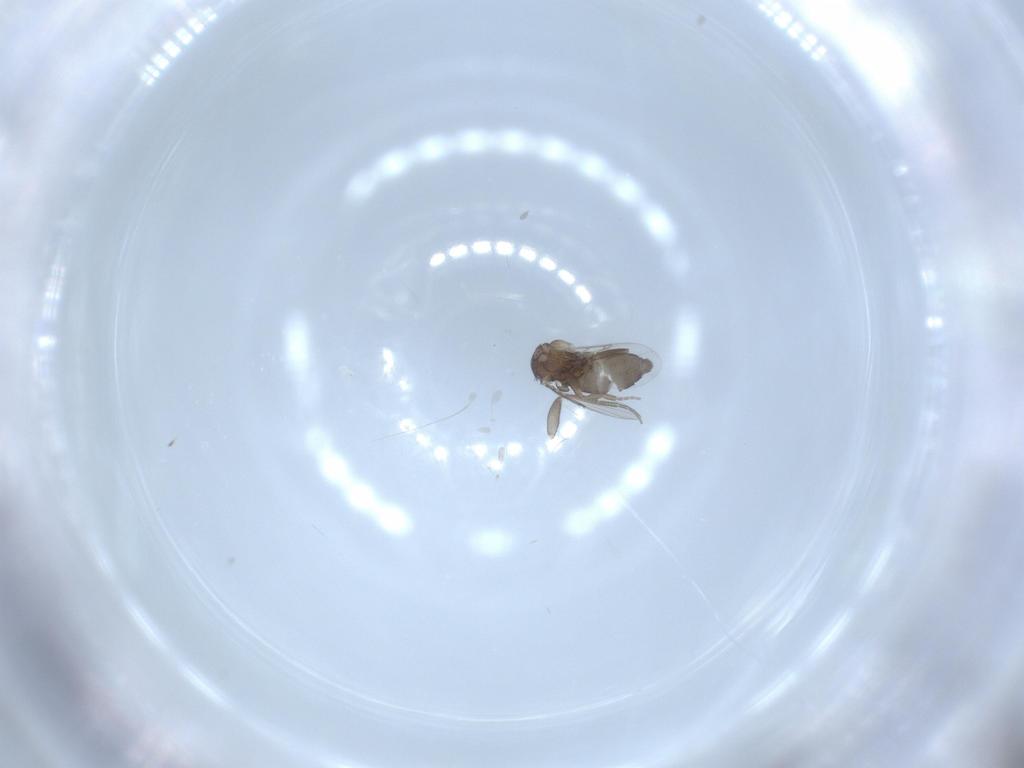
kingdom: Animalia
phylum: Arthropoda
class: Insecta
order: Diptera
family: Phoridae
